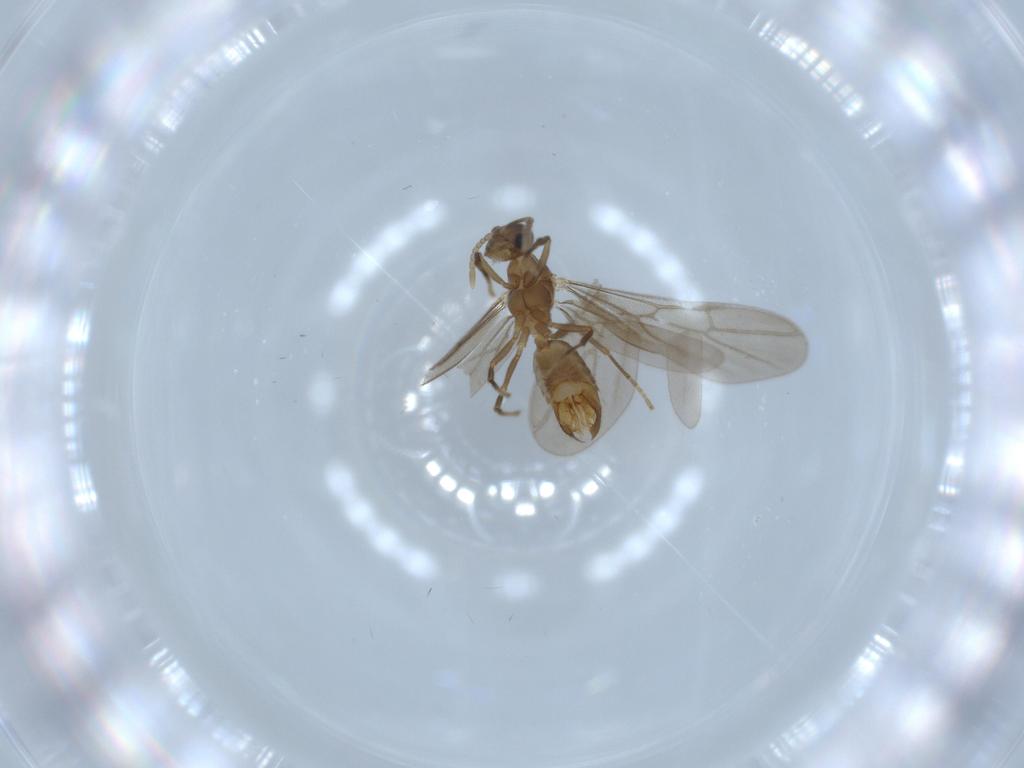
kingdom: Animalia
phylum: Arthropoda
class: Insecta
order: Hymenoptera
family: Formicidae
